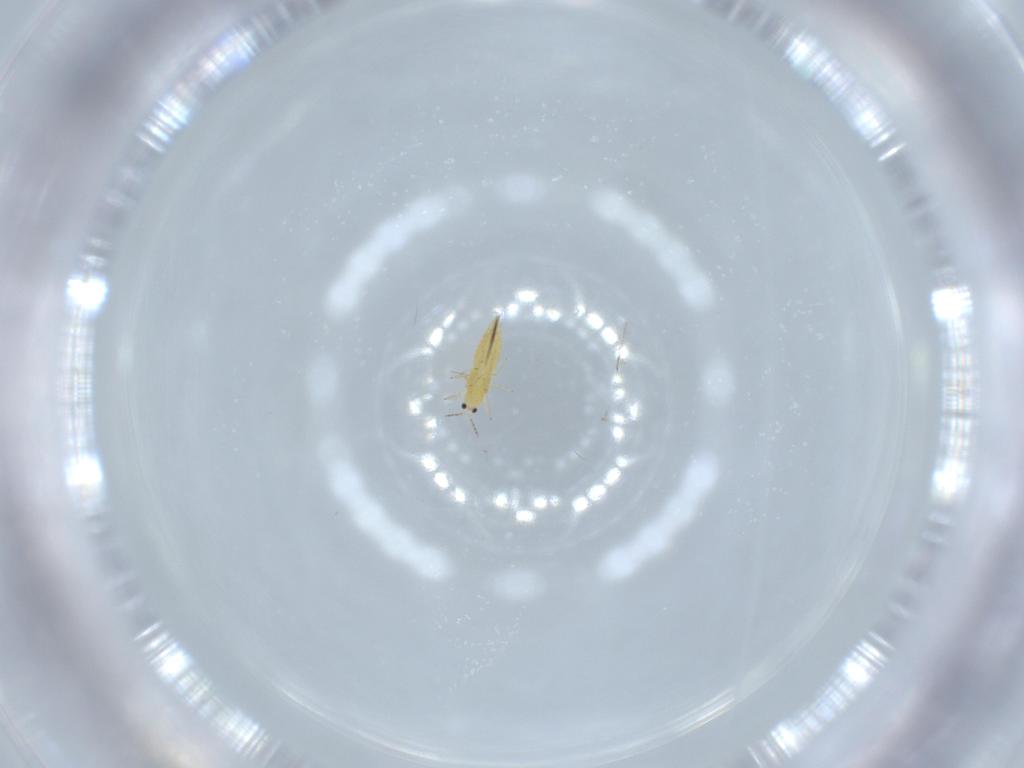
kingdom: Animalia
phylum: Arthropoda
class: Insecta
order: Thysanoptera
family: Thripidae
